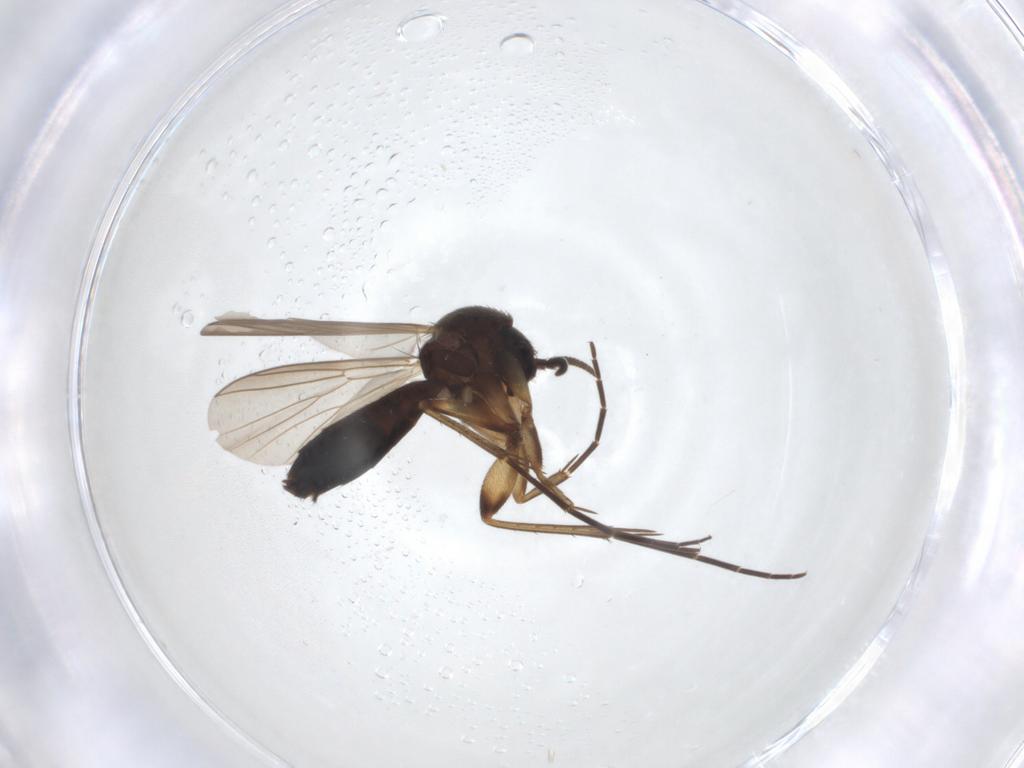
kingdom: Animalia
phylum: Arthropoda
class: Insecta
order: Diptera
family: Mycetophilidae
